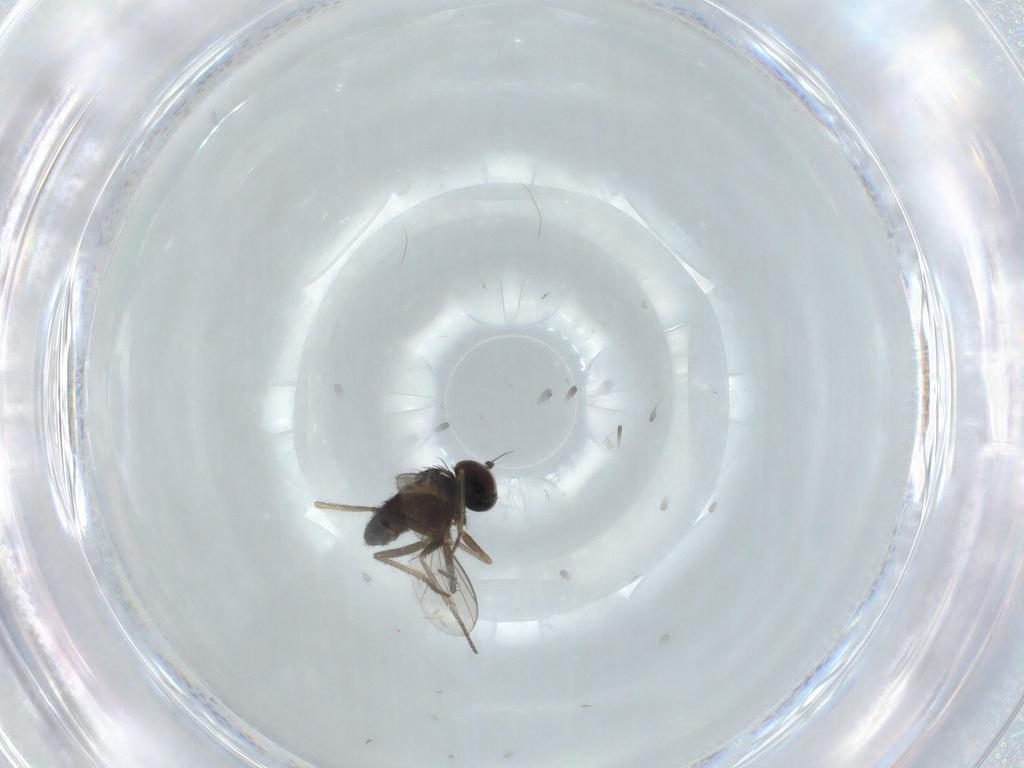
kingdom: Animalia
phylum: Arthropoda
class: Insecta
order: Diptera
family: Dolichopodidae
